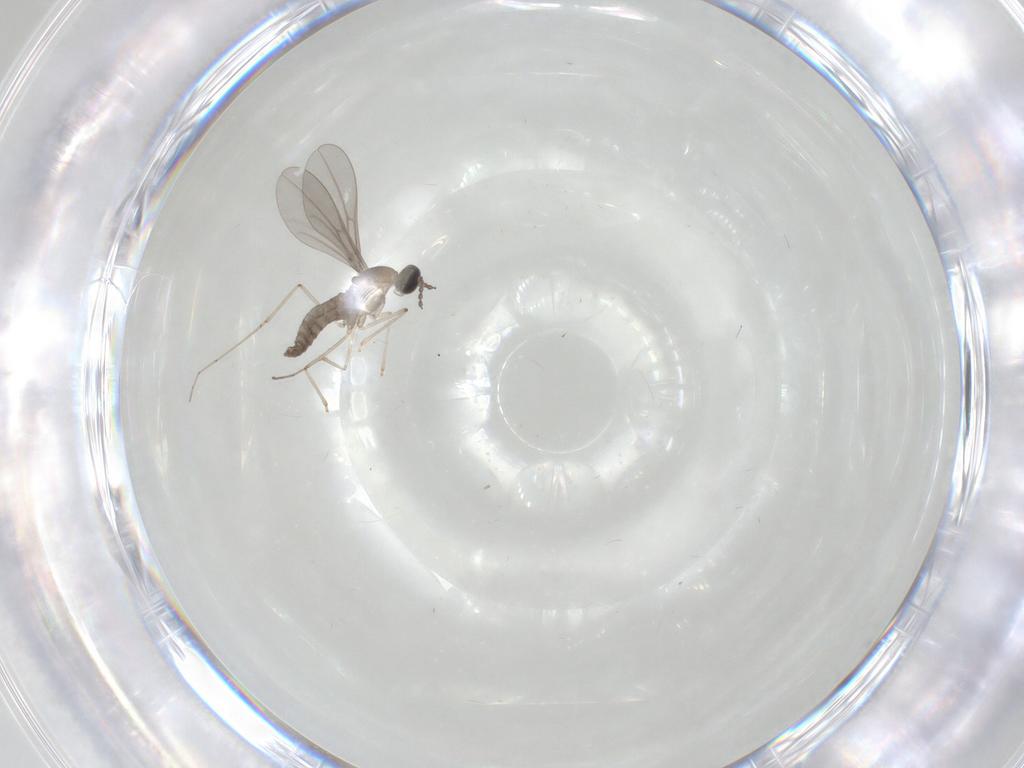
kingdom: Animalia
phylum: Arthropoda
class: Insecta
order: Diptera
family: Cecidomyiidae
